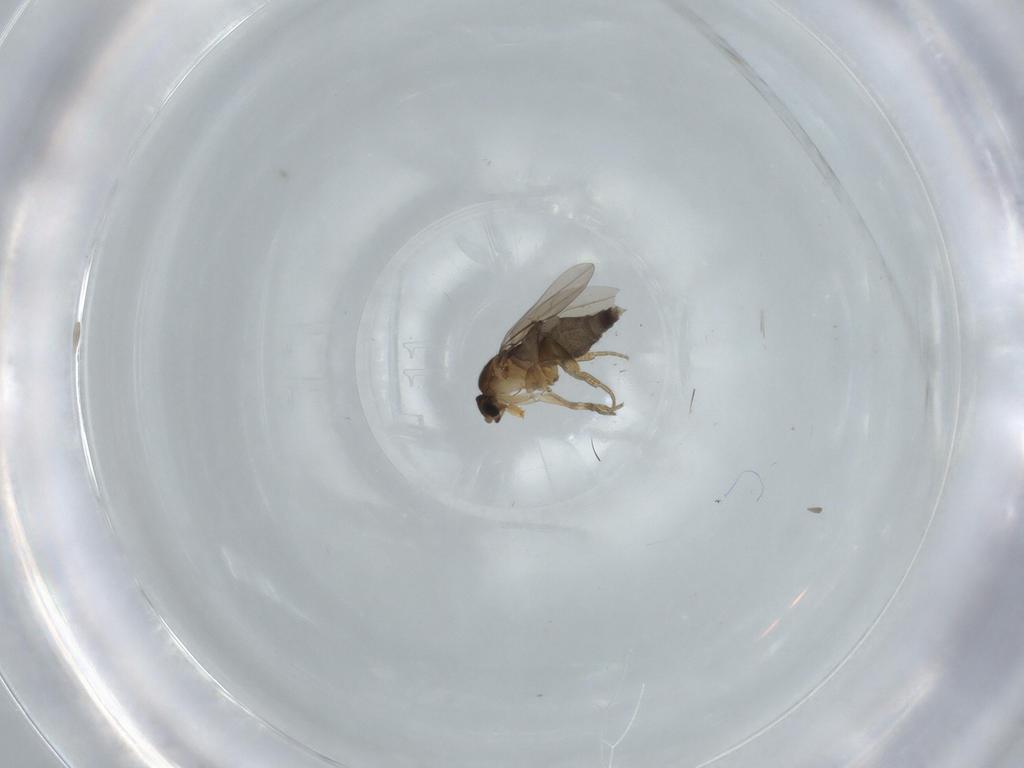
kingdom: Animalia
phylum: Arthropoda
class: Insecta
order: Diptera
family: Phoridae
